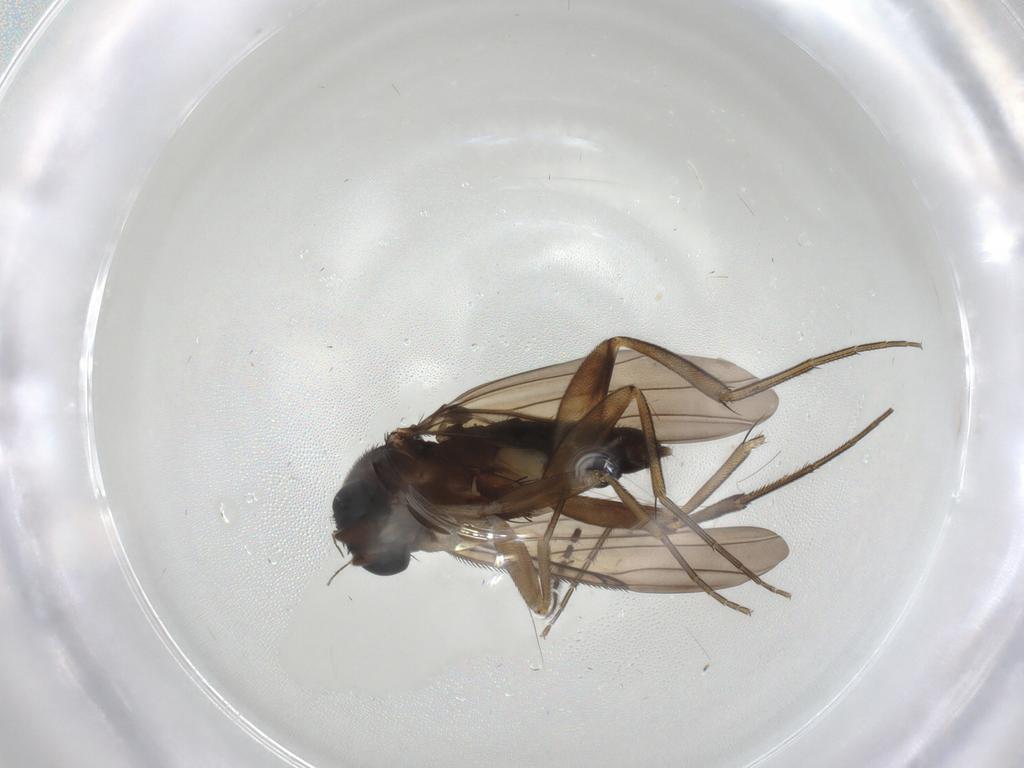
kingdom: Animalia
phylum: Arthropoda
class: Insecta
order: Diptera
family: Phoridae
